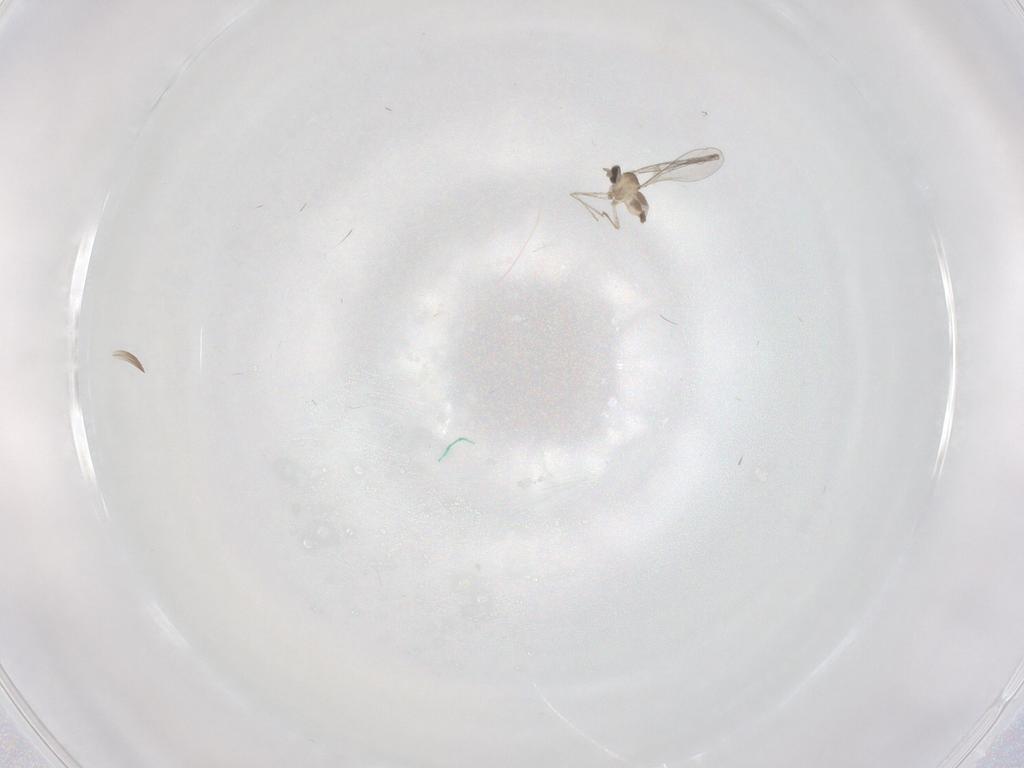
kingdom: Animalia
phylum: Arthropoda
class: Insecta
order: Diptera
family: Cecidomyiidae
